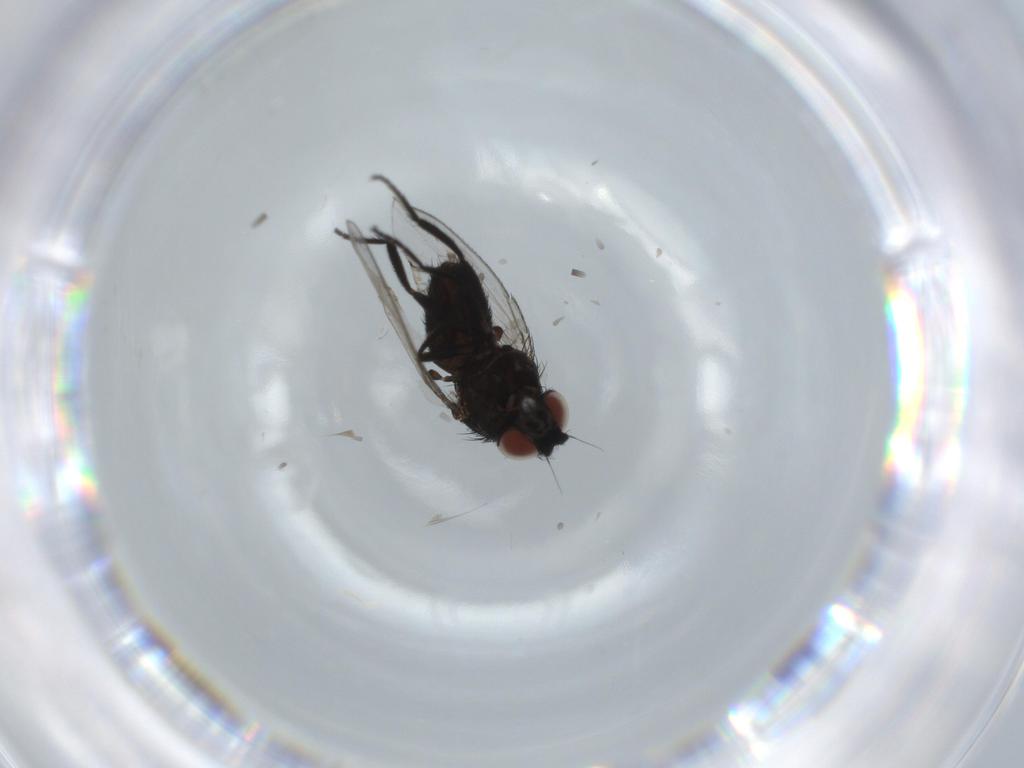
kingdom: Animalia
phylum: Arthropoda
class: Insecta
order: Diptera
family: Milichiidae
